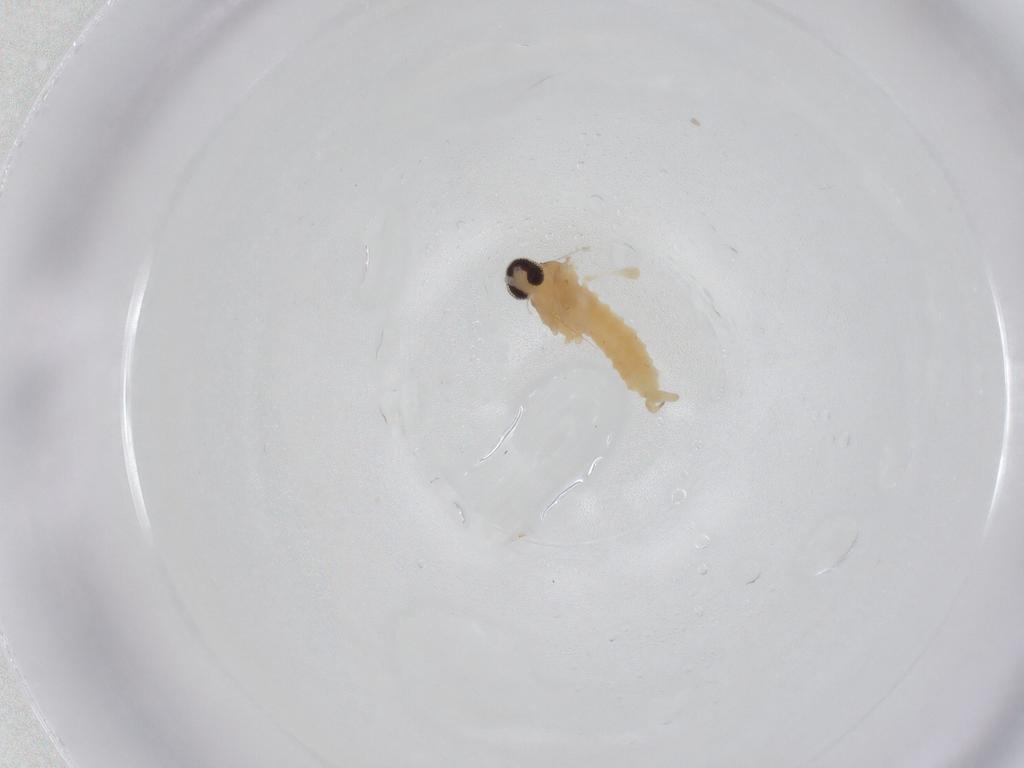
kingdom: Animalia
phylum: Arthropoda
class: Insecta
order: Diptera
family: Cecidomyiidae
